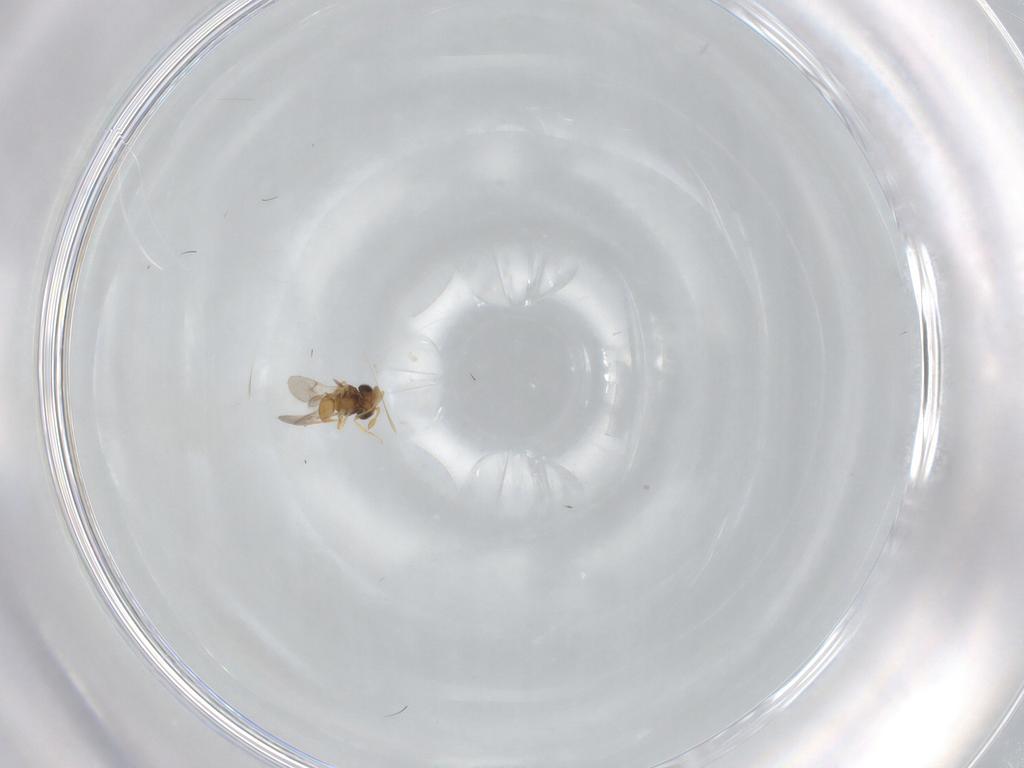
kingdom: Animalia
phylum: Arthropoda
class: Insecta
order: Hymenoptera
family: Scelionidae
